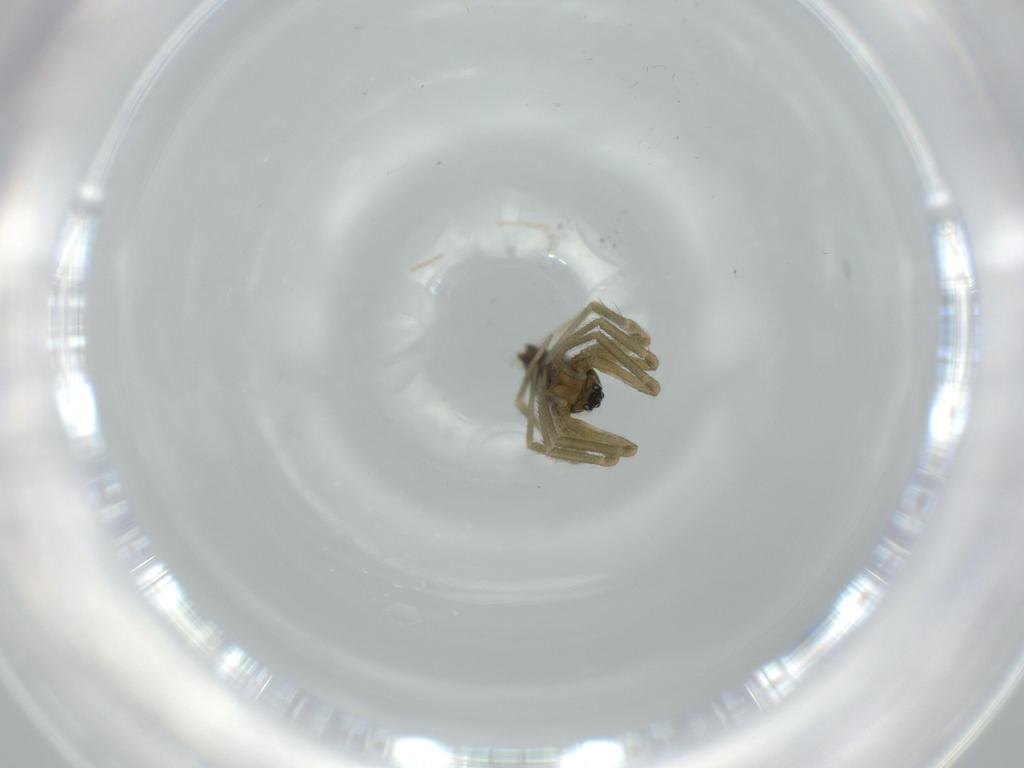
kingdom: Animalia
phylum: Arthropoda
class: Arachnida
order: Araneae
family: Linyphiidae
